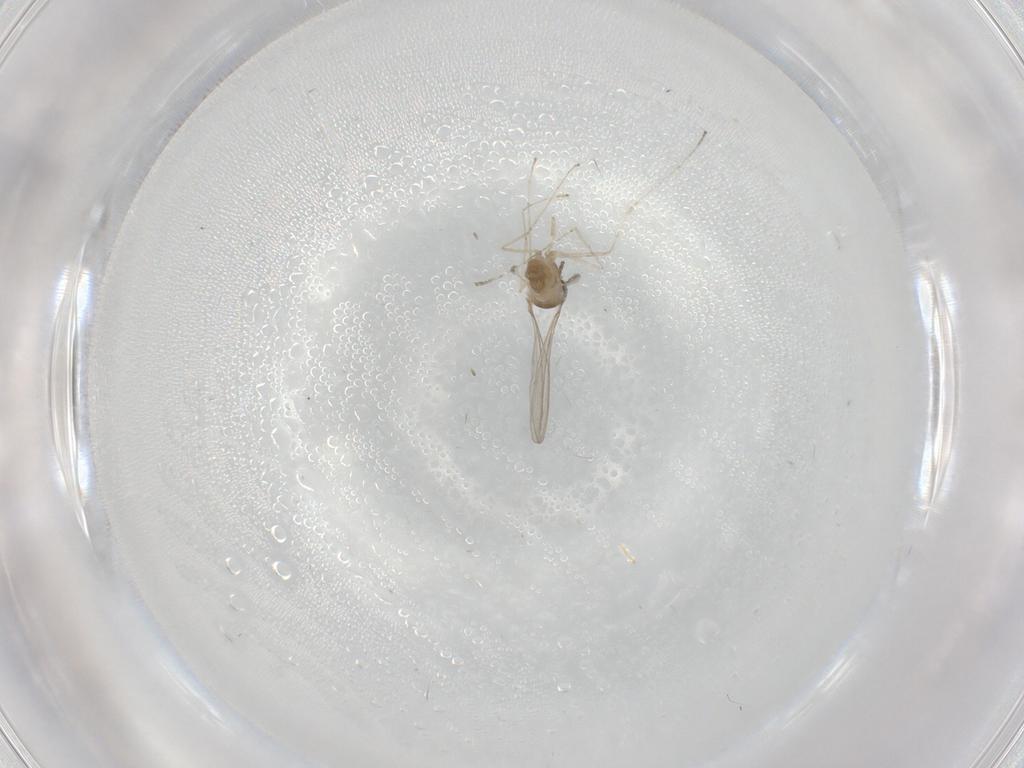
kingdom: Animalia
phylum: Arthropoda
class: Insecta
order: Diptera
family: Cecidomyiidae
